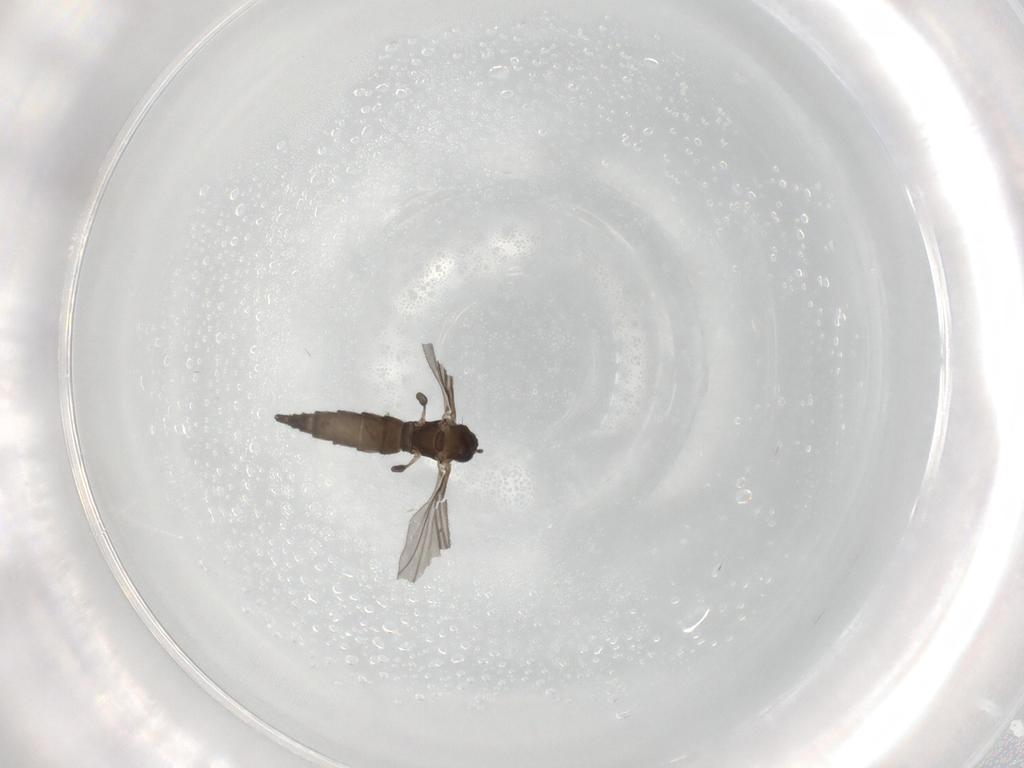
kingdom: Animalia
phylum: Arthropoda
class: Insecta
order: Diptera
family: Sciaridae
